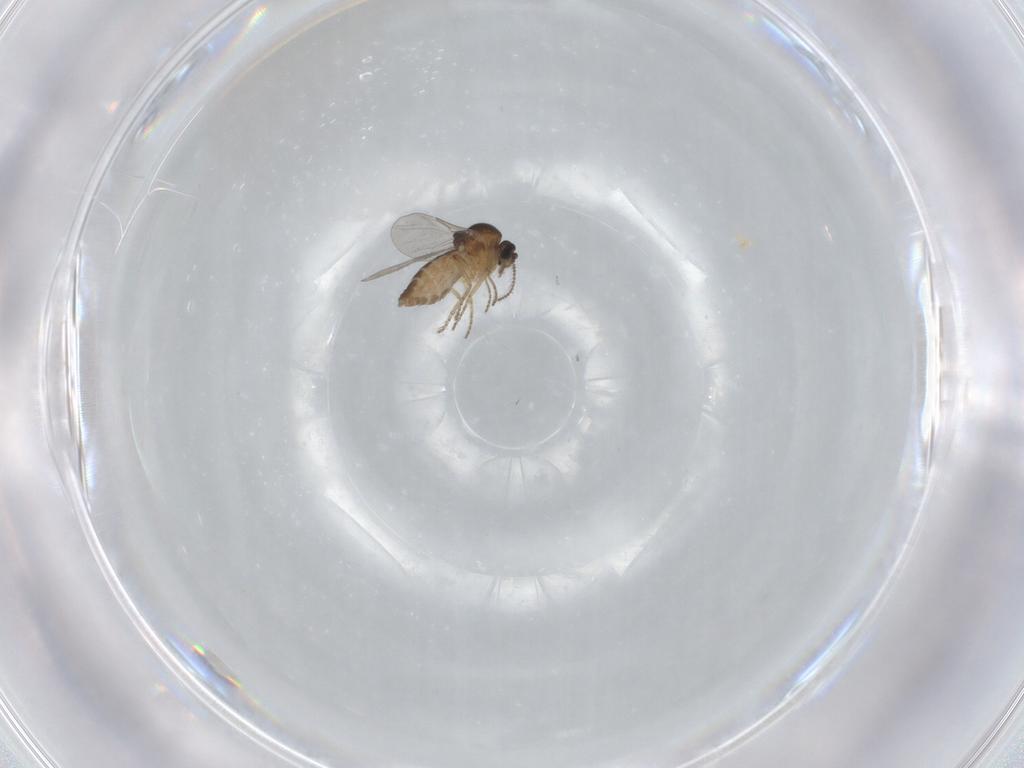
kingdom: Animalia
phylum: Arthropoda
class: Insecta
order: Diptera
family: Ceratopogonidae
